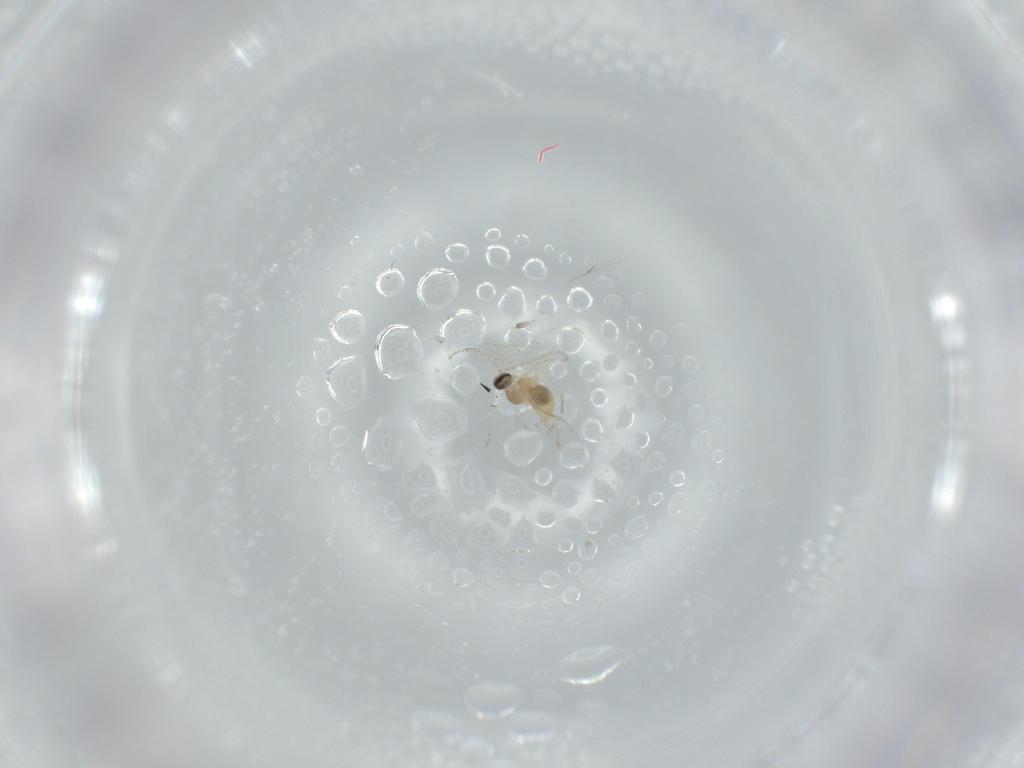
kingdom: Animalia
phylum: Arthropoda
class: Insecta
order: Diptera
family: Cecidomyiidae
